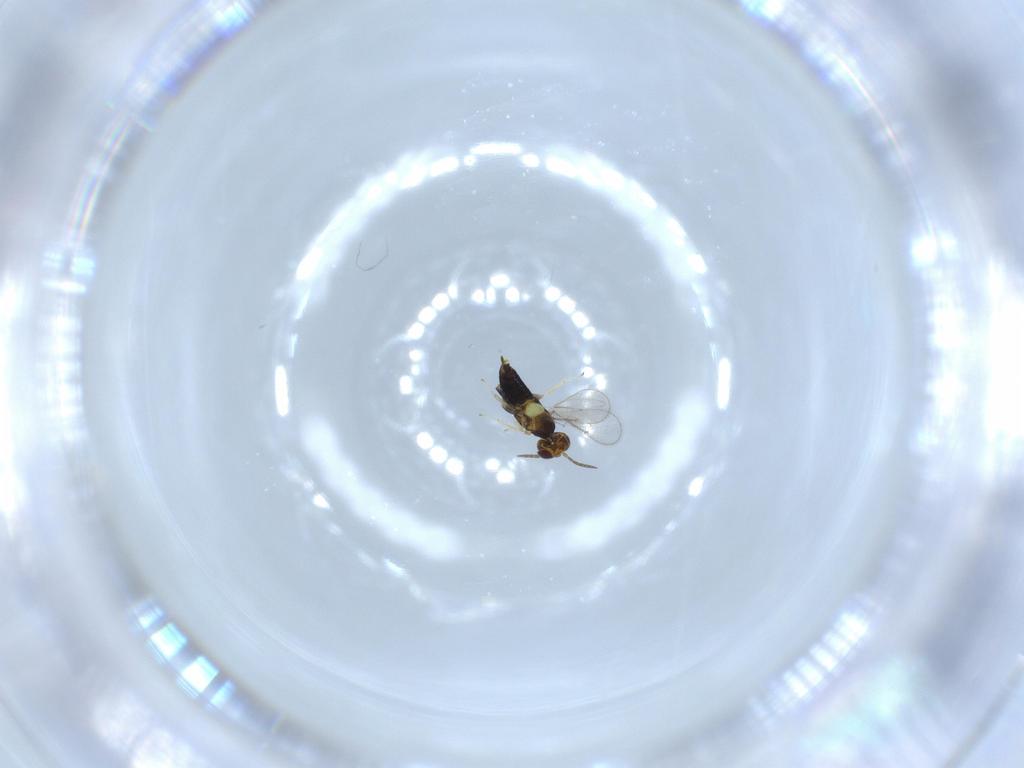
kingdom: Animalia
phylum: Arthropoda
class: Insecta
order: Hymenoptera
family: Aphelinidae
